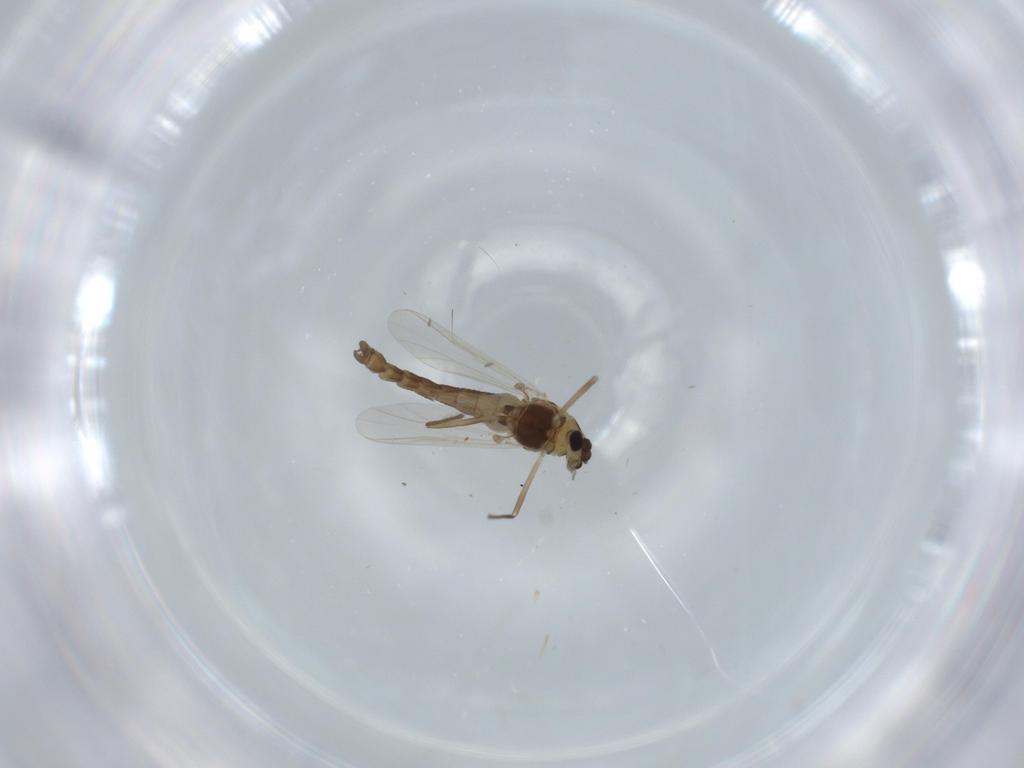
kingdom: Animalia
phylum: Arthropoda
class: Insecta
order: Diptera
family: Chironomidae
